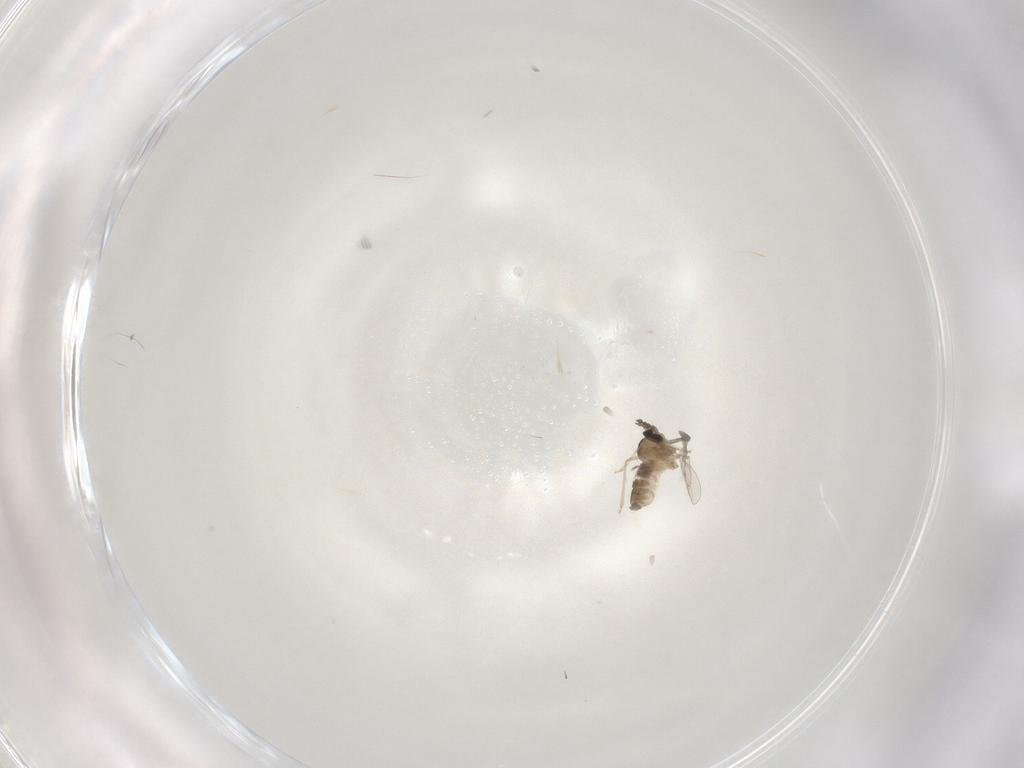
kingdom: Animalia
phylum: Arthropoda
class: Insecta
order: Diptera
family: Cecidomyiidae
